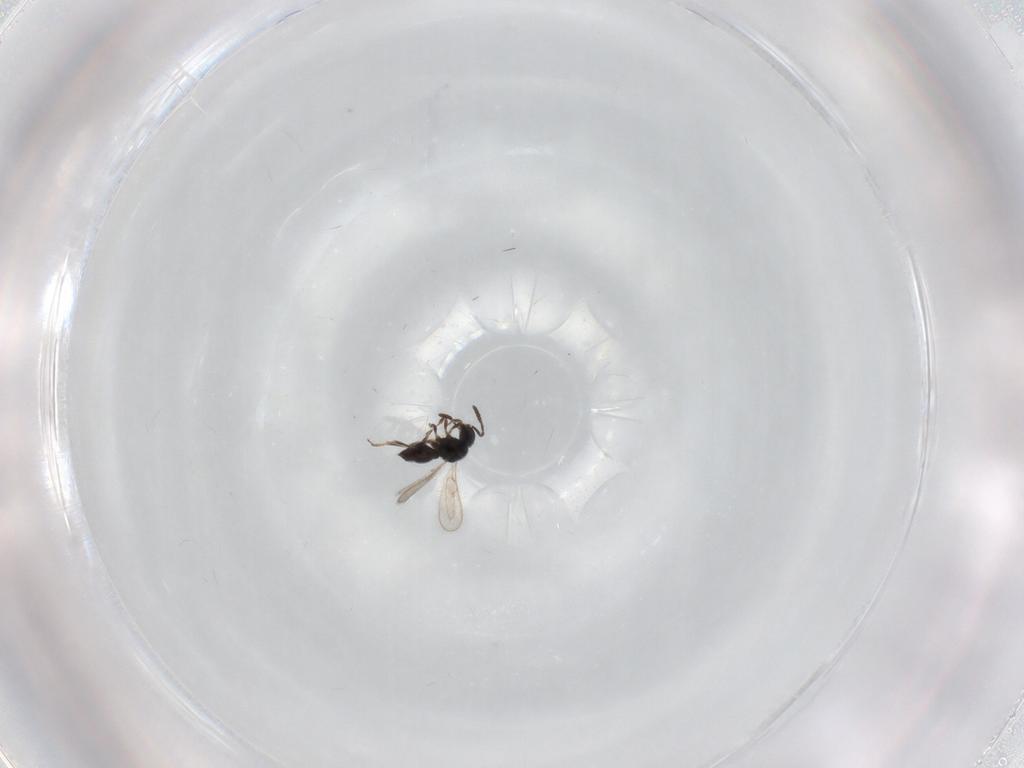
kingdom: Animalia
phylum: Arthropoda
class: Insecta
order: Hymenoptera
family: Scelionidae
